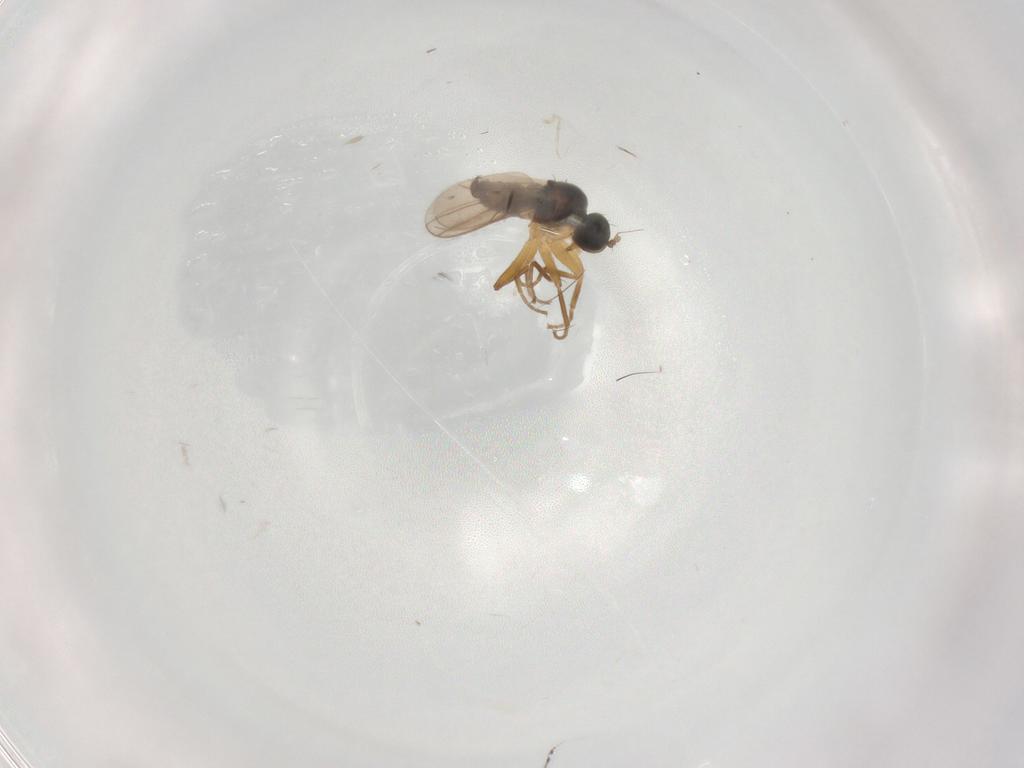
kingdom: Animalia
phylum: Arthropoda
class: Insecta
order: Diptera
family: Hybotidae
